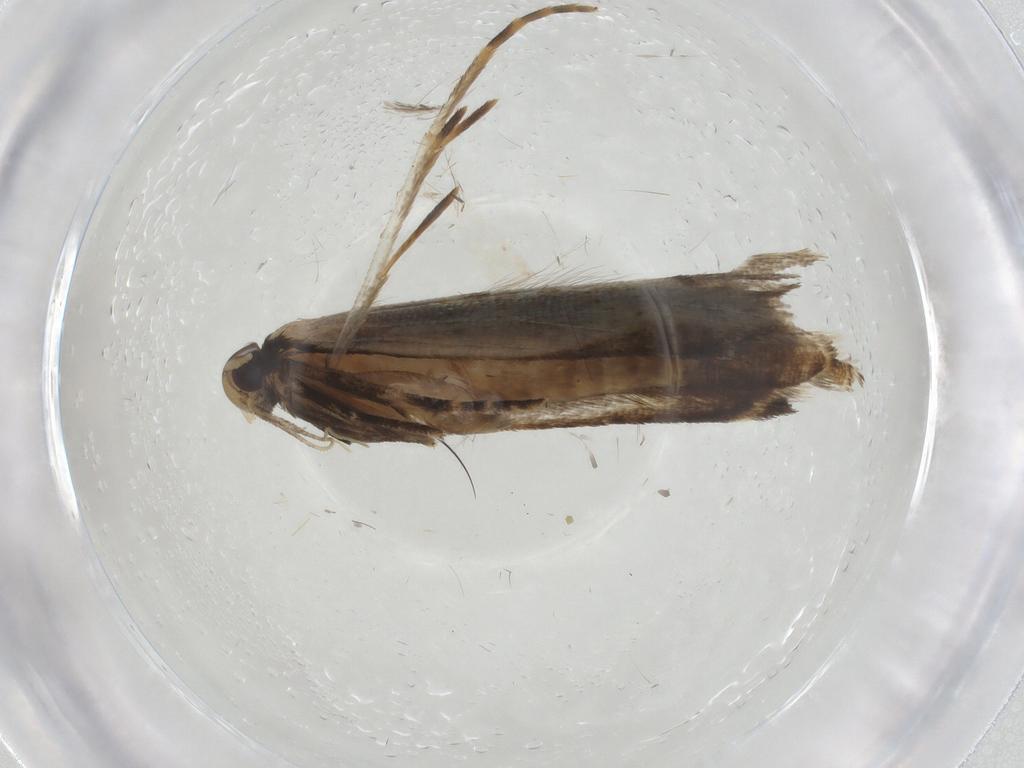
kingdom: Animalia
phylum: Arthropoda
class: Insecta
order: Lepidoptera
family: Gelechiidae
